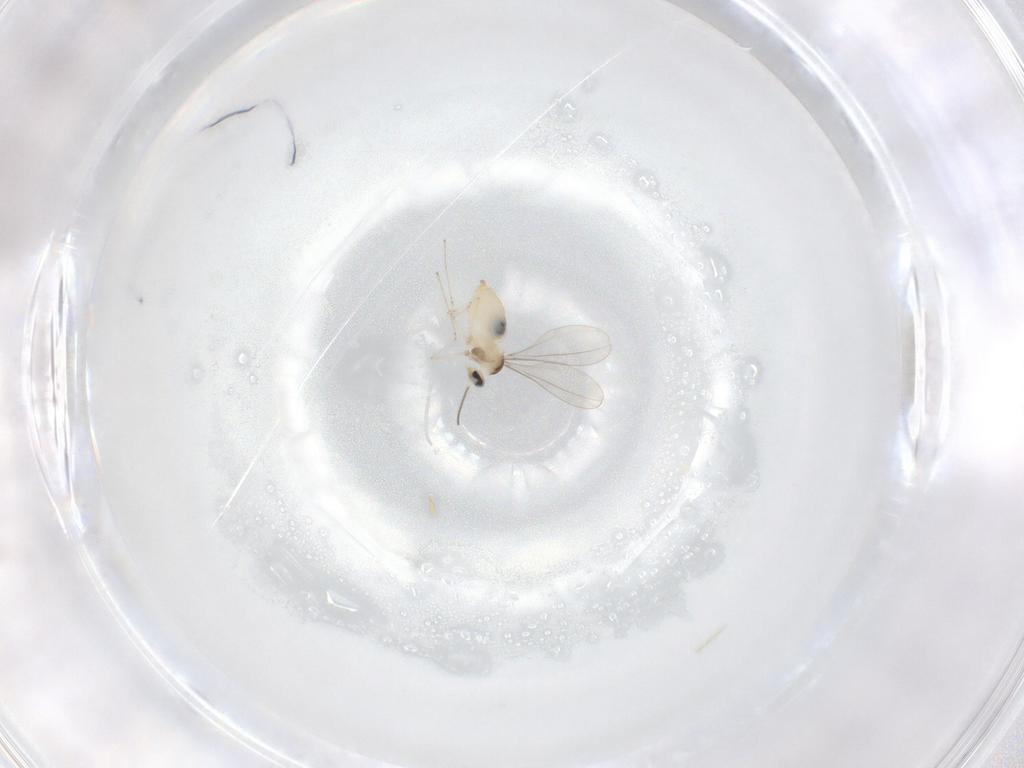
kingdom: Animalia
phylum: Arthropoda
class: Insecta
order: Diptera
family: Cecidomyiidae
